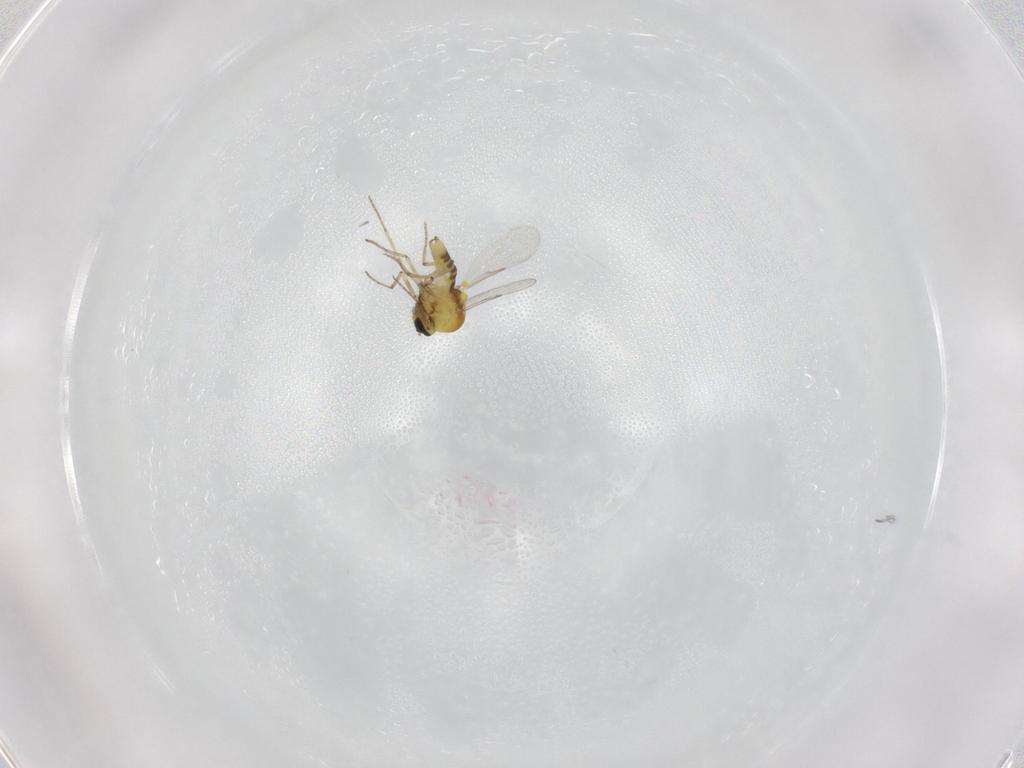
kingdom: Animalia
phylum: Arthropoda
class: Insecta
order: Diptera
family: Ceratopogonidae
